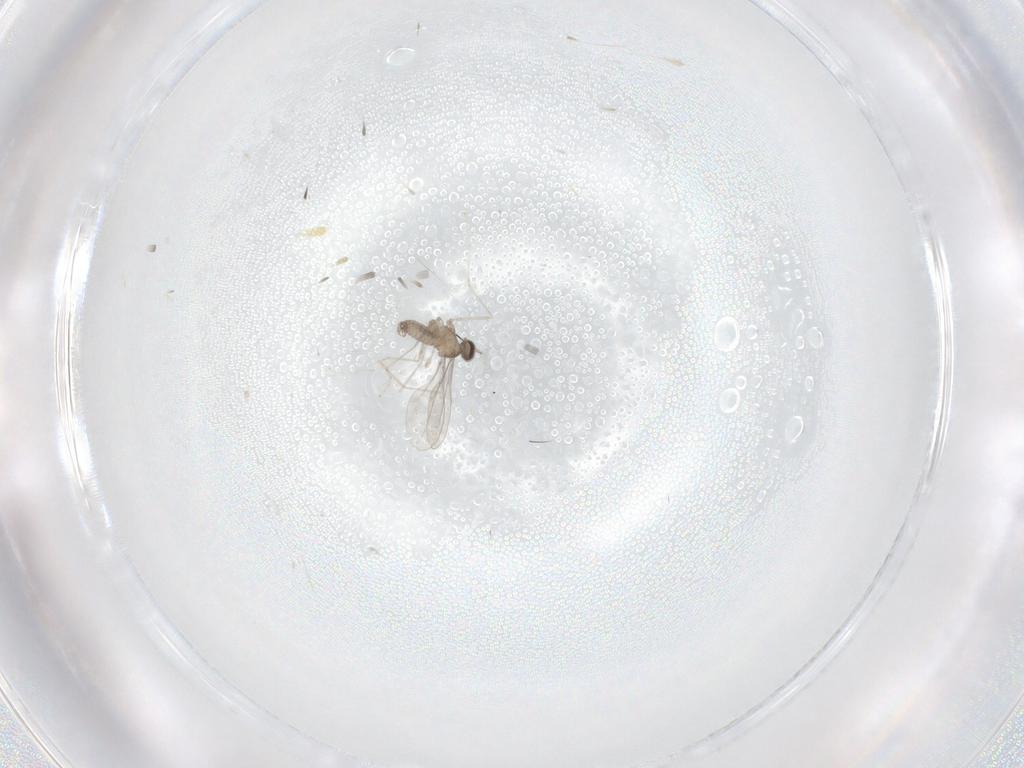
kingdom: Animalia
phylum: Arthropoda
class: Insecta
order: Diptera
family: Cecidomyiidae
